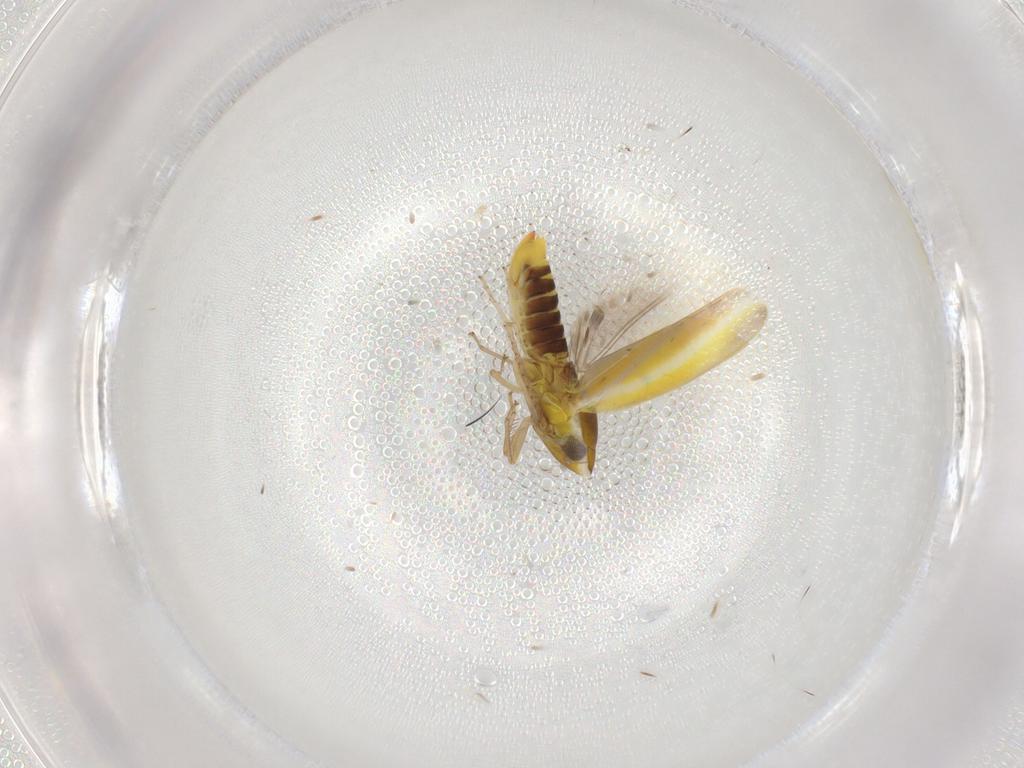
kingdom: Animalia
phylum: Arthropoda
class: Insecta
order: Hemiptera
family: Cicadellidae
